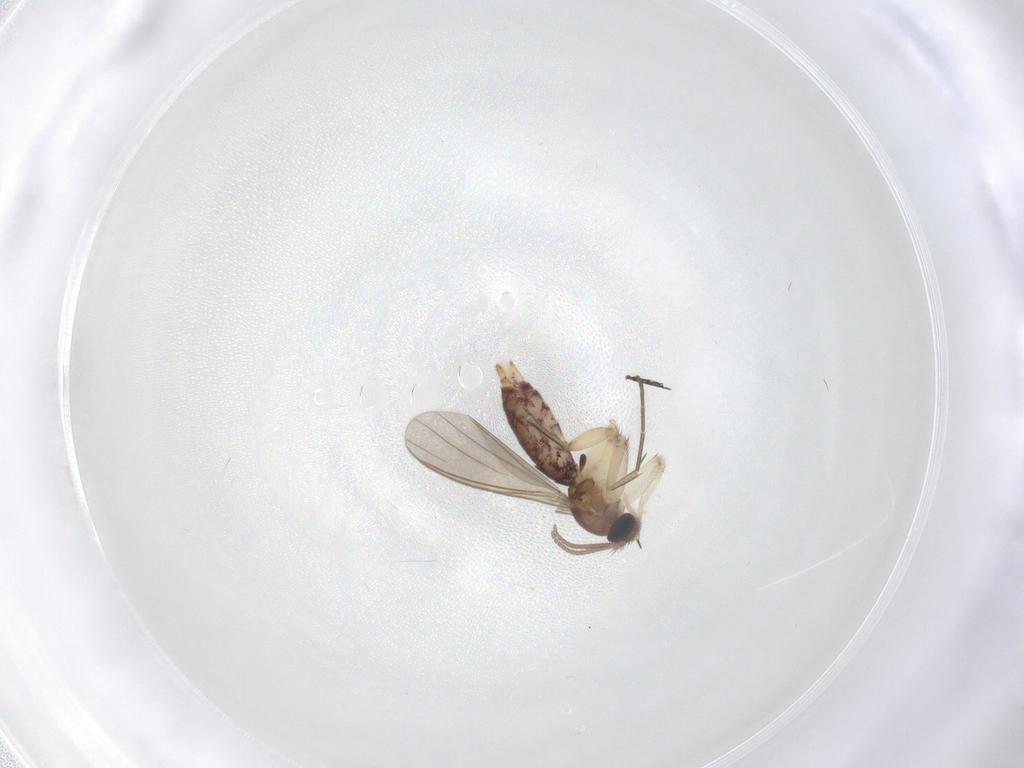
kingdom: Animalia
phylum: Arthropoda
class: Insecta
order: Diptera
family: Mycetophilidae
